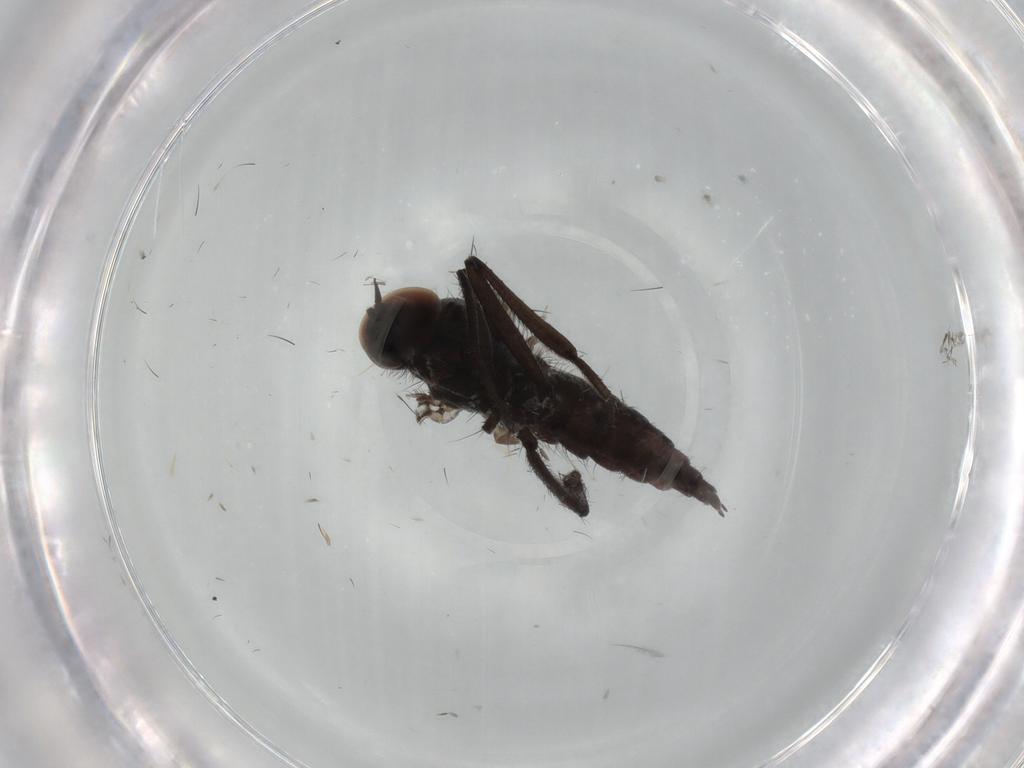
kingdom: Animalia
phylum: Arthropoda
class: Insecta
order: Diptera
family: Hybotidae
